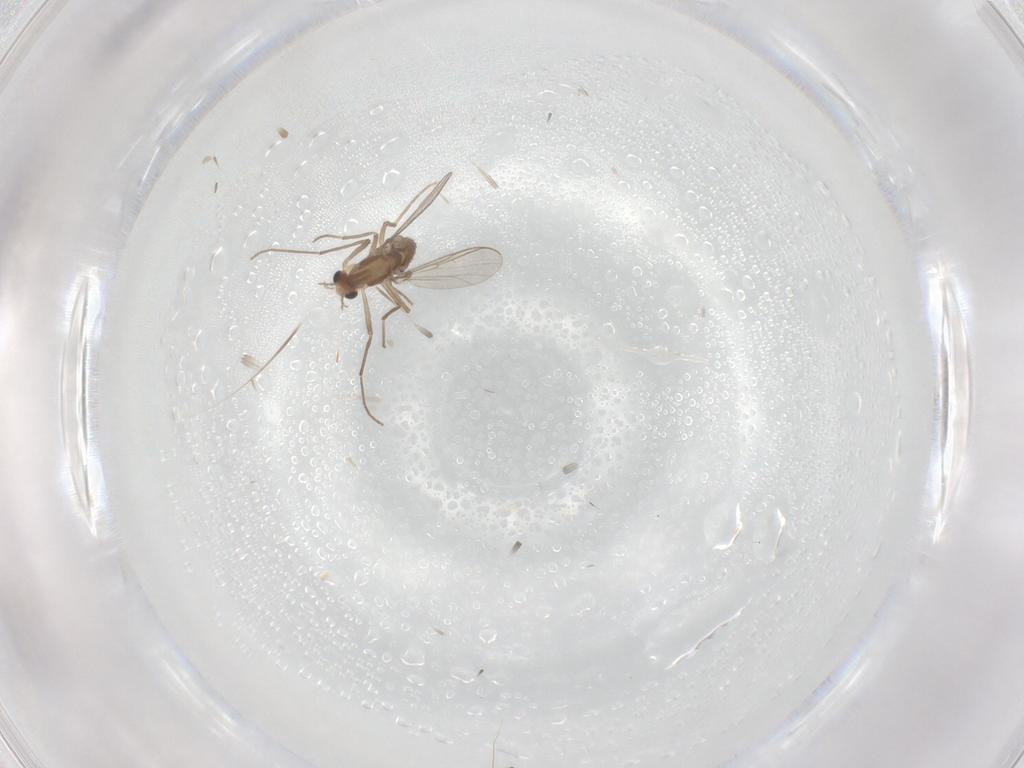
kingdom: Animalia
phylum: Arthropoda
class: Insecta
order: Diptera
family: Chironomidae
